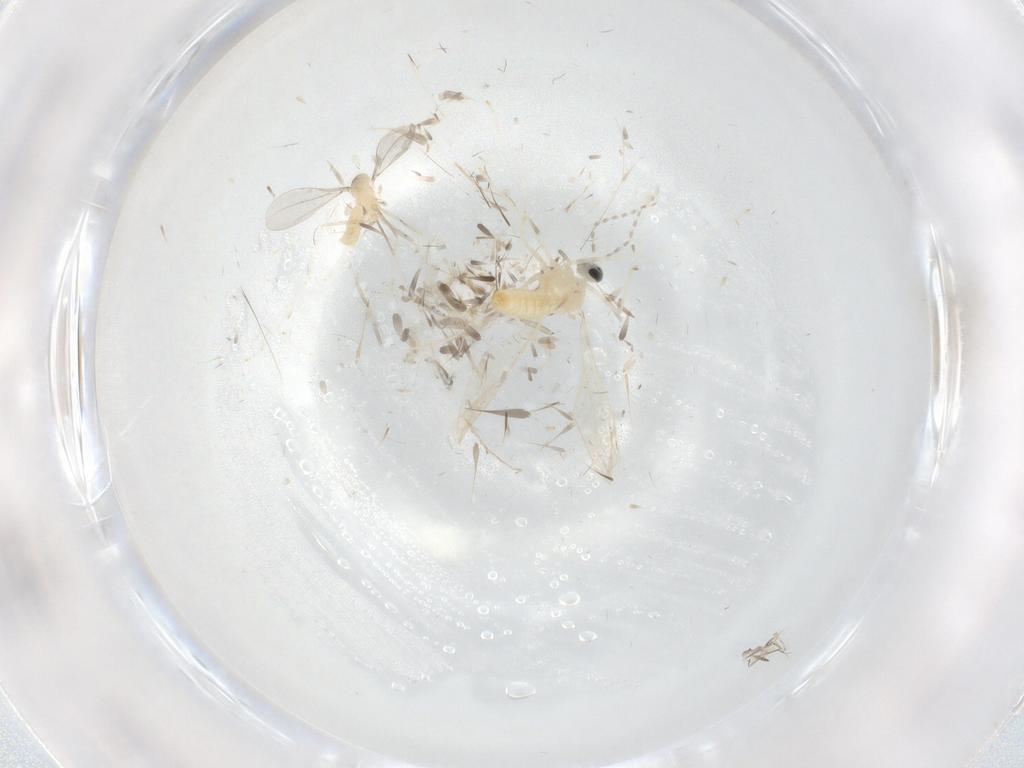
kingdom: Animalia
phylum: Arthropoda
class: Insecta
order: Diptera
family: Cecidomyiidae
